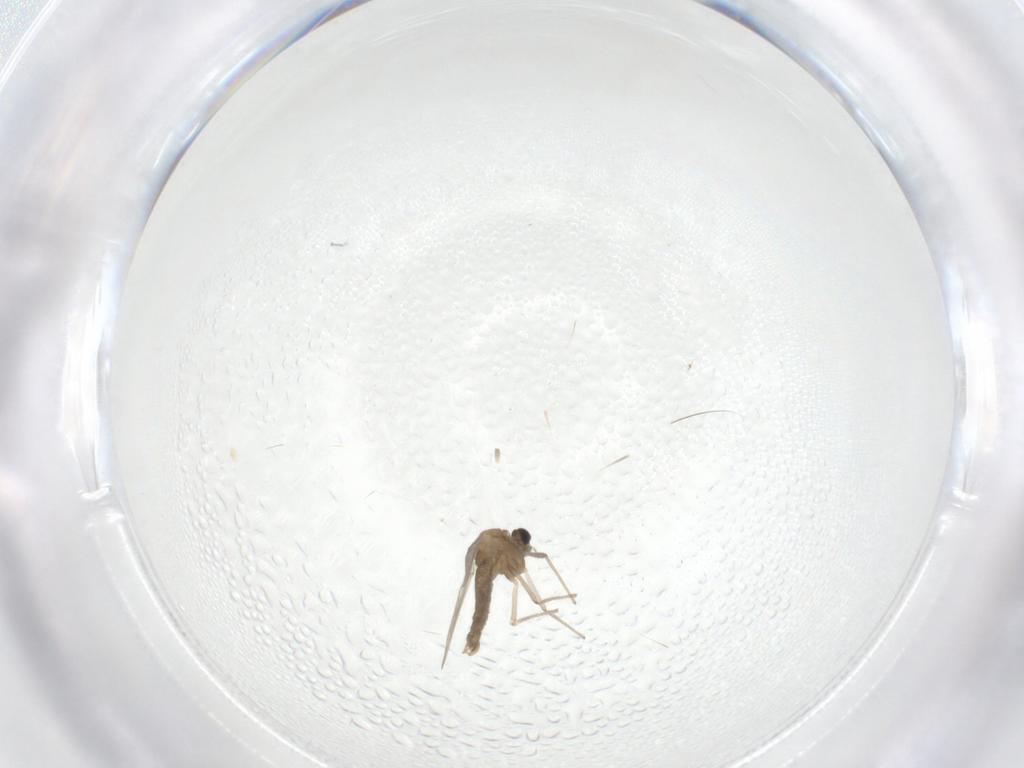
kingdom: Animalia
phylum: Arthropoda
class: Insecta
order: Diptera
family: Chironomidae
